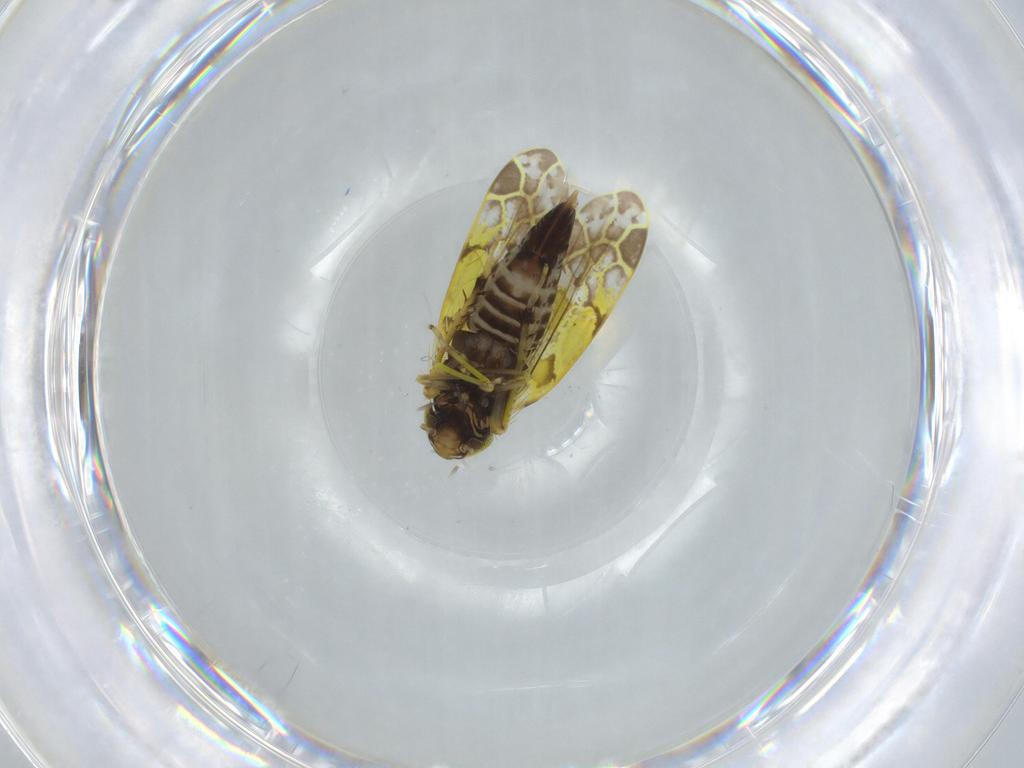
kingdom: Animalia
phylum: Arthropoda
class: Insecta
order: Hemiptera
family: Cicadellidae
